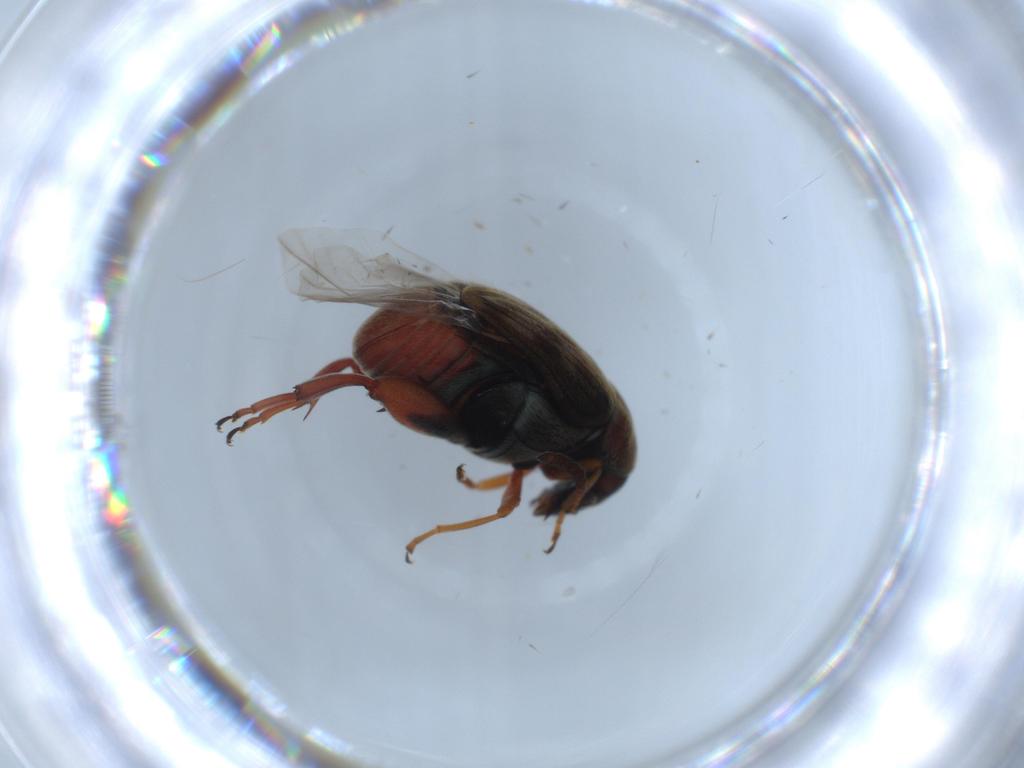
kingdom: Animalia
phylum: Arthropoda
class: Insecta
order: Coleoptera
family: Chrysomelidae
